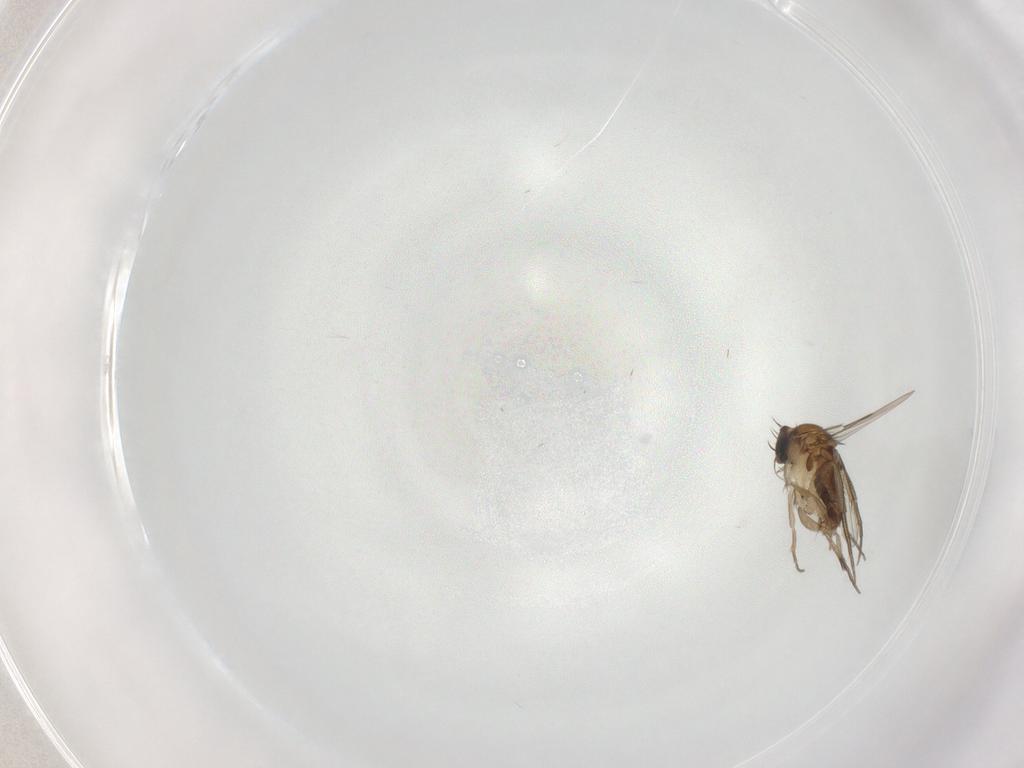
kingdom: Animalia
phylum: Arthropoda
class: Insecta
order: Diptera
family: Phoridae
